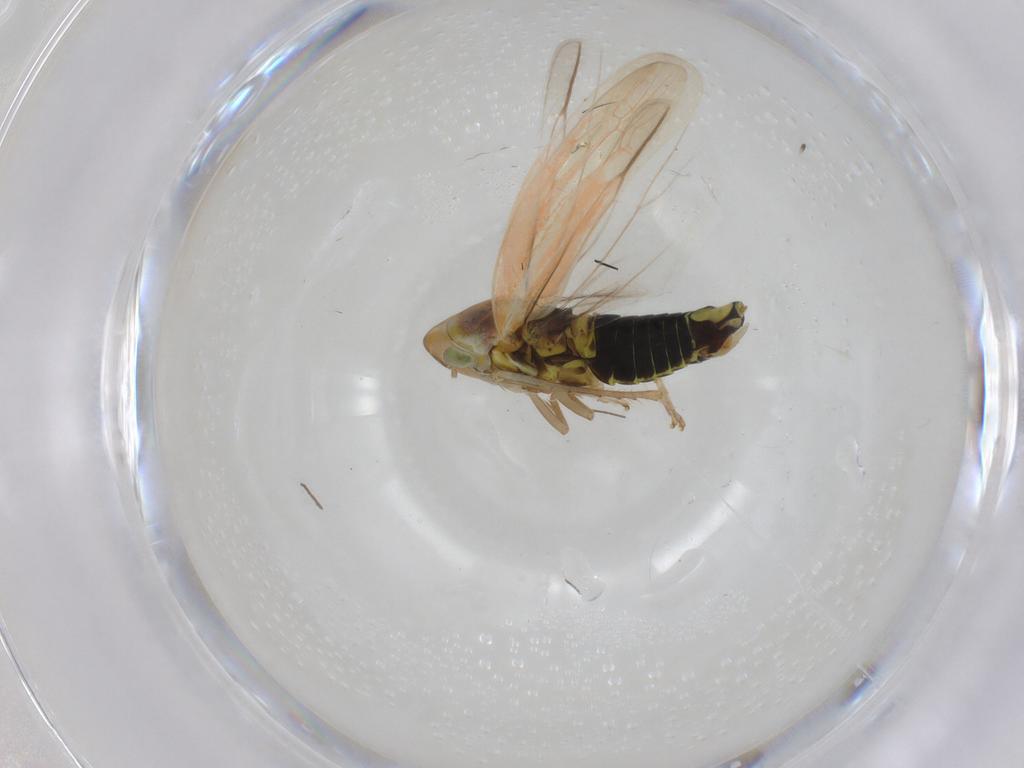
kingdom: Animalia
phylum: Arthropoda
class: Insecta
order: Hemiptera
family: Cicadellidae
